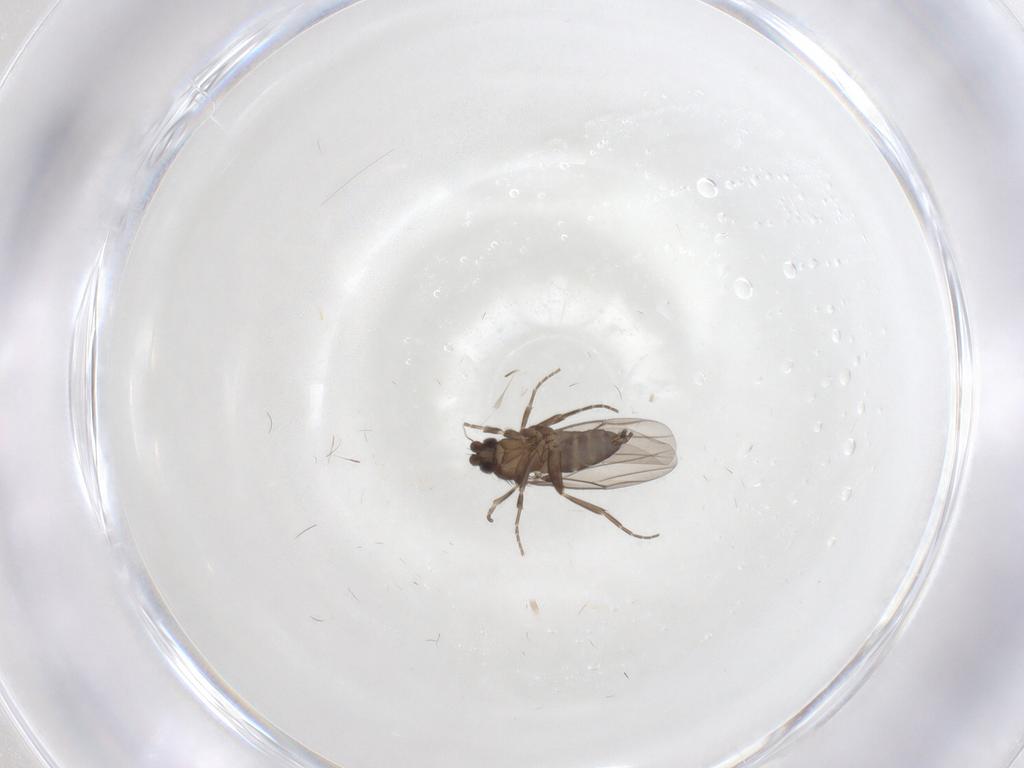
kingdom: Animalia
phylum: Arthropoda
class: Insecta
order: Diptera
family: Cecidomyiidae
